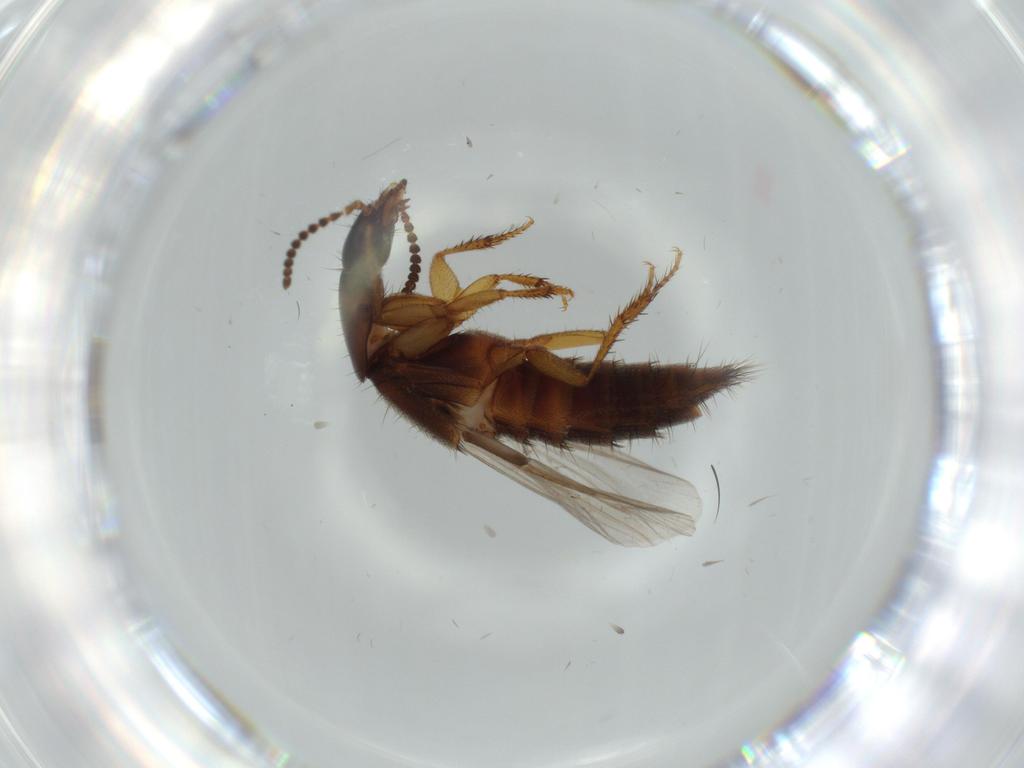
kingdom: Animalia
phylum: Arthropoda
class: Insecta
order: Coleoptera
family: Staphylinidae
